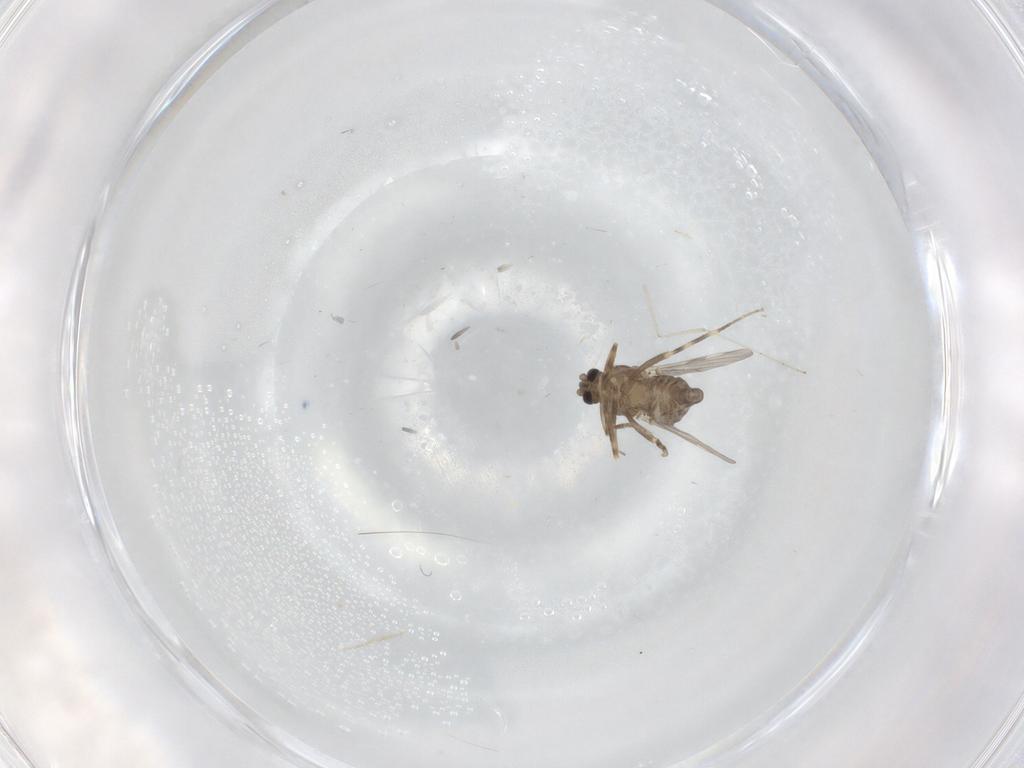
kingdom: Animalia
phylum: Arthropoda
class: Insecta
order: Diptera
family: Ceratopogonidae
